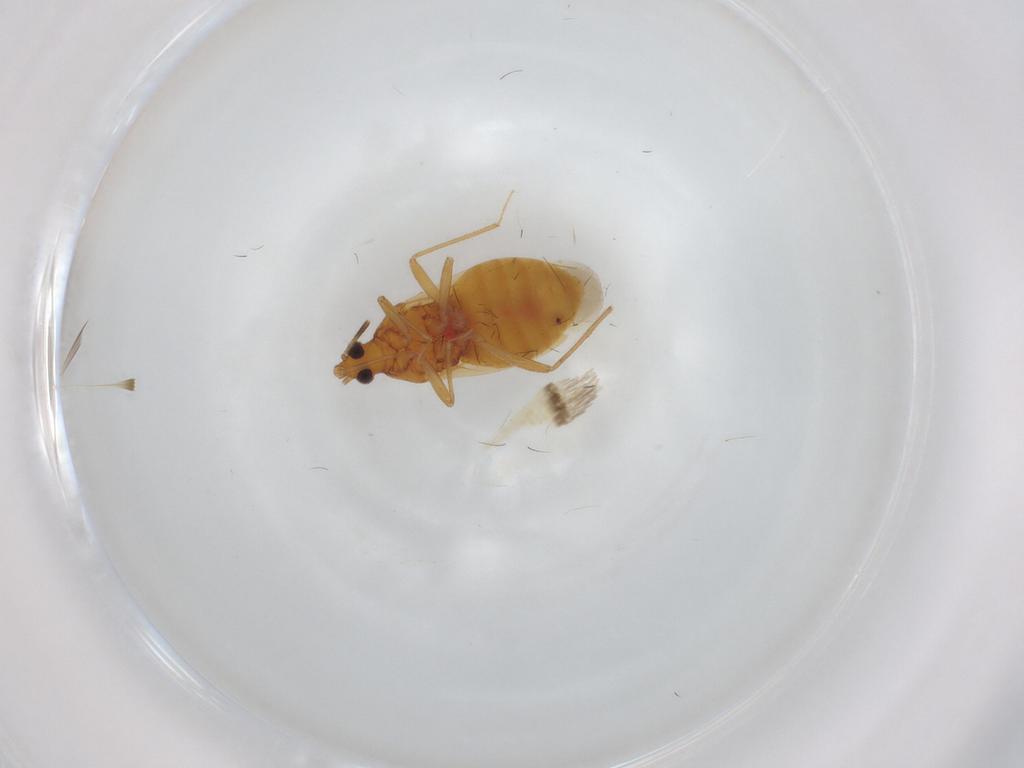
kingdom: Animalia
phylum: Arthropoda
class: Insecta
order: Hemiptera
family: Anthocoridae
